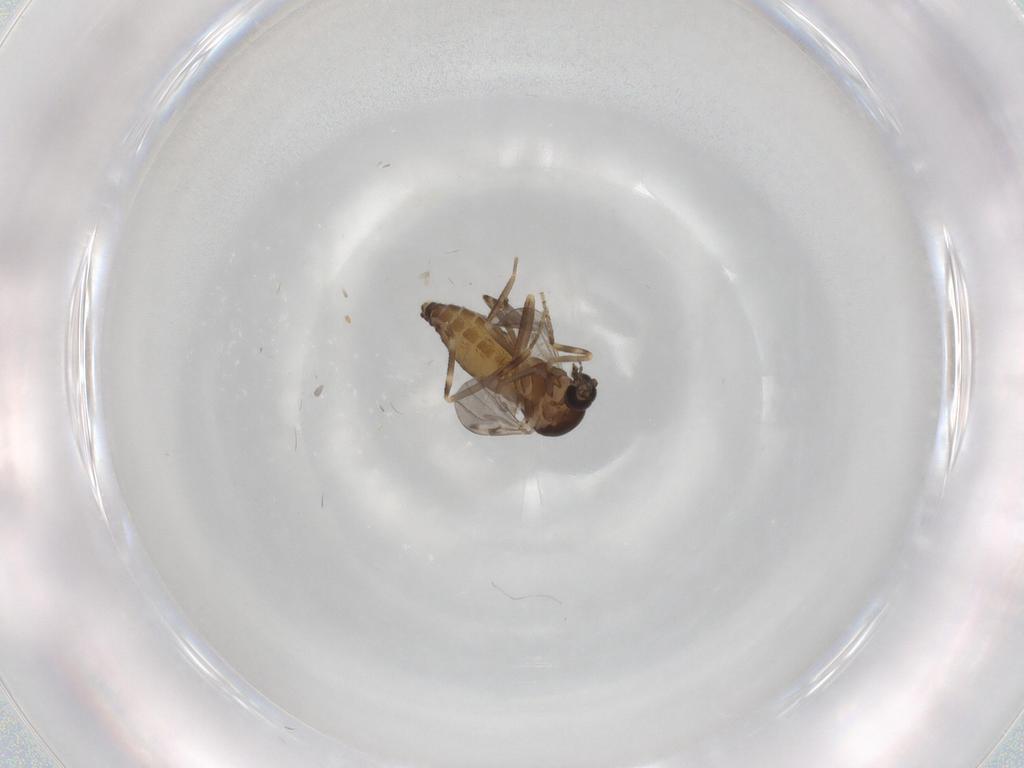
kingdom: Animalia
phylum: Arthropoda
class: Insecta
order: Diptera
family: Ceratopogonidae
